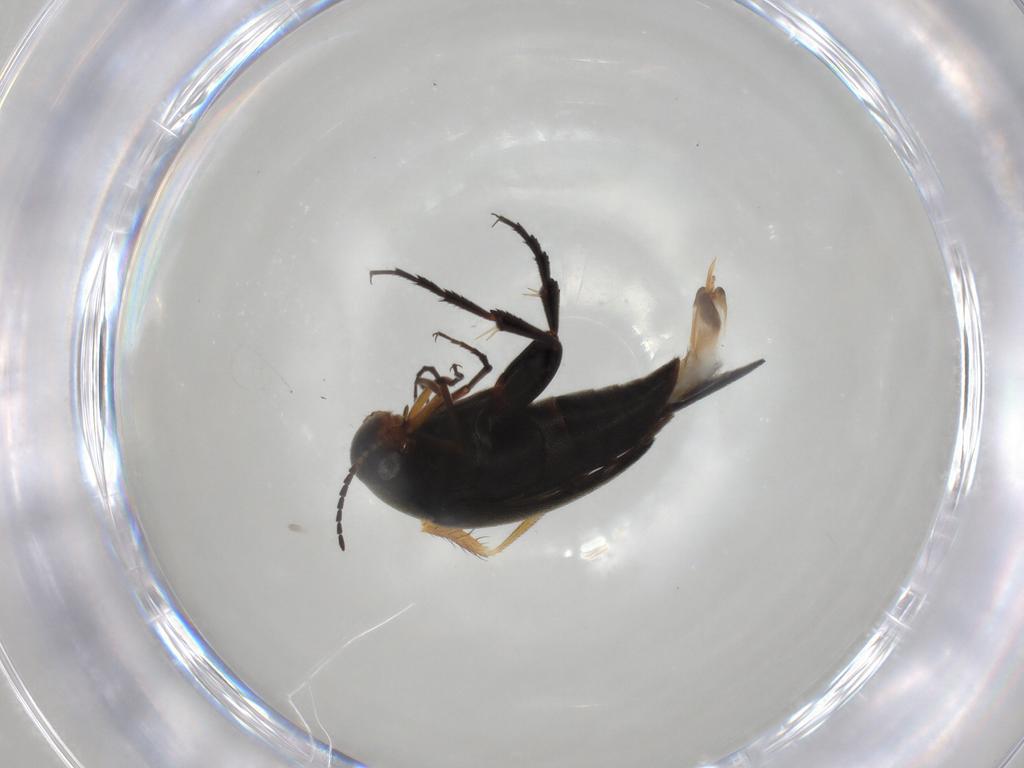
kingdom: Animalia
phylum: Arthropoda
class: Insecta
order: Coleoptera
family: Mordellidae
